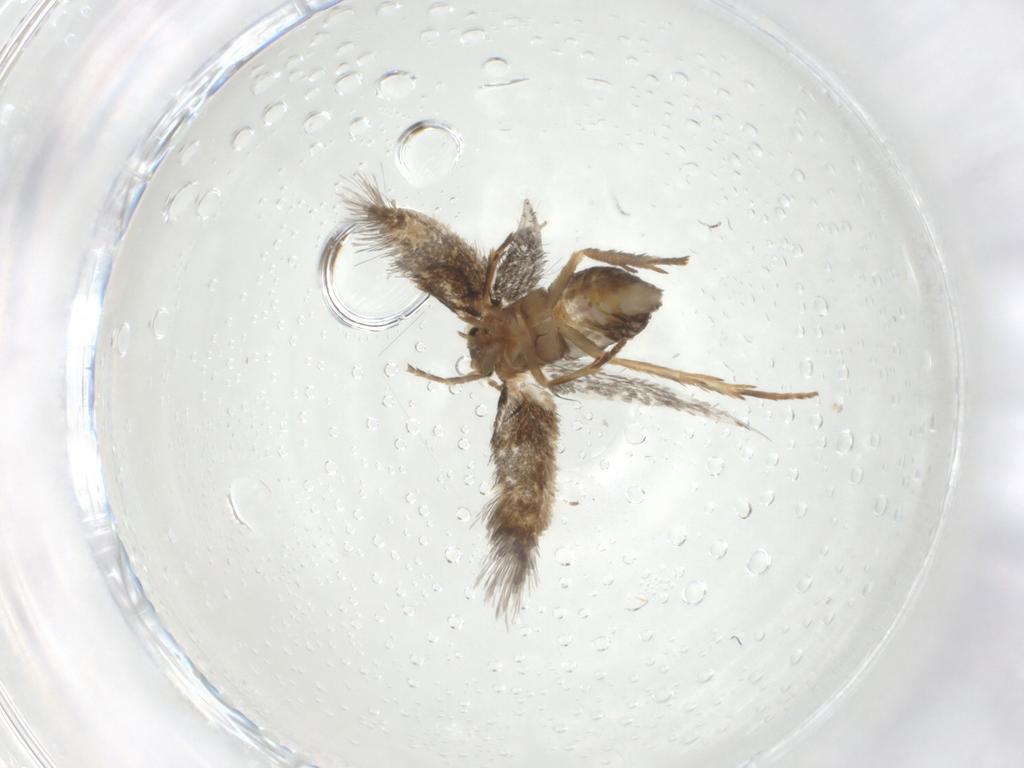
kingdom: Animalia
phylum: Arthropoda
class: Insecta
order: Lepidoptera
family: Nepticulidae
